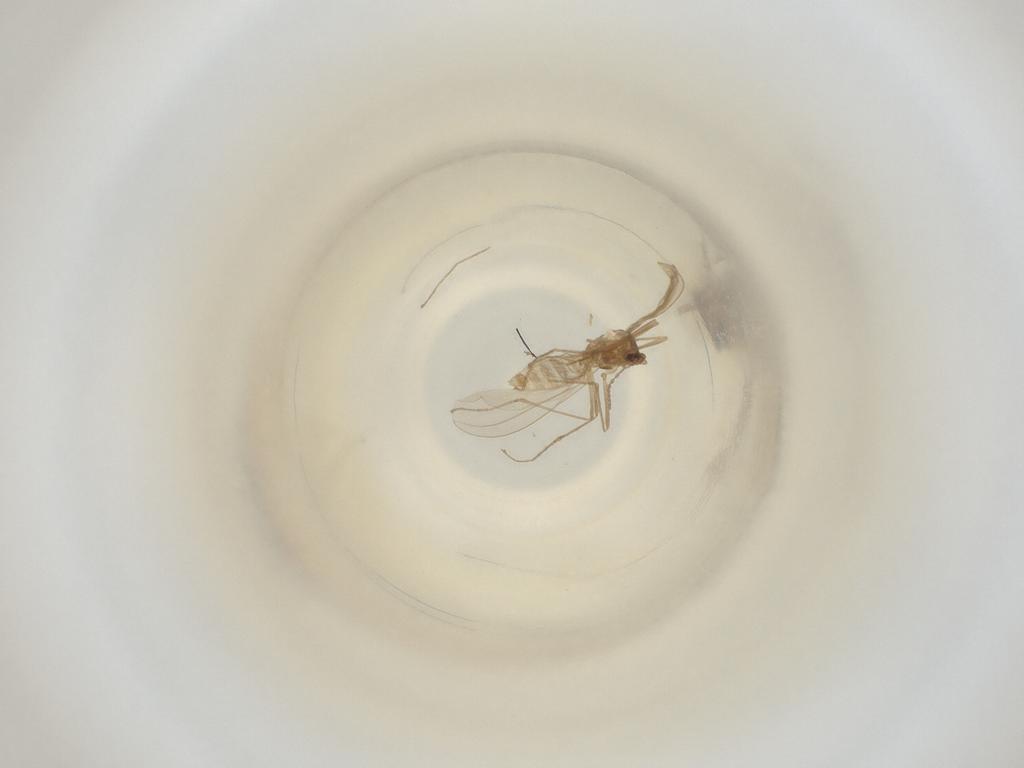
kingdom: Animalia
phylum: Arthropoda
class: Insecta
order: Diptera
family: Cecidomyiidae
